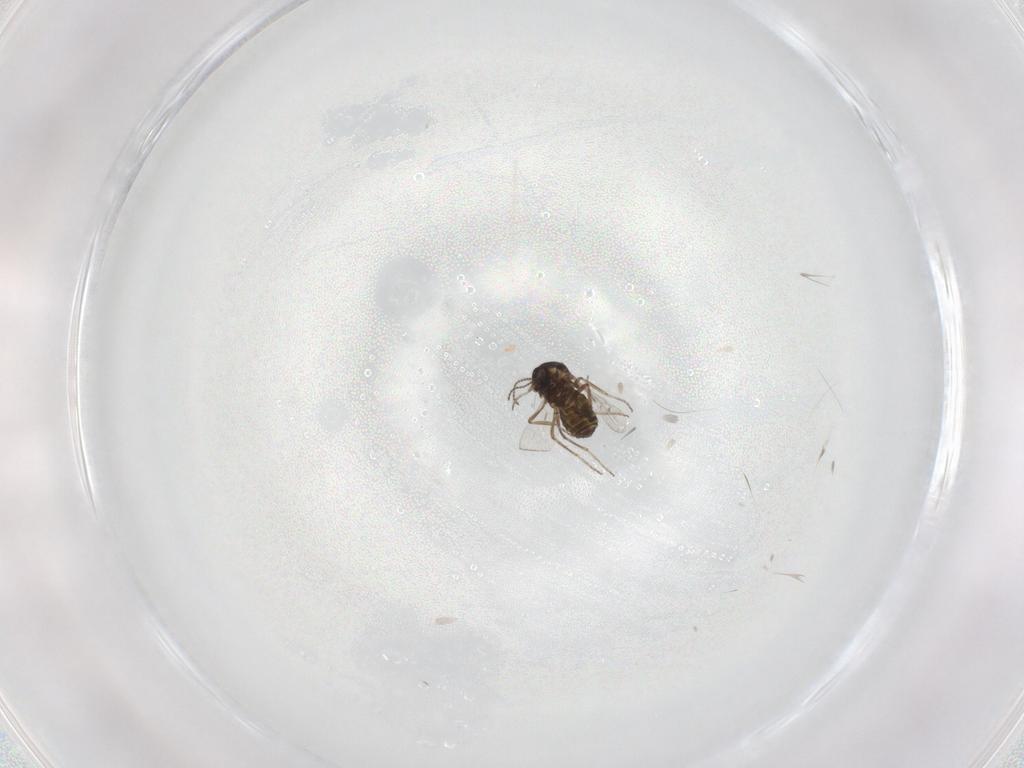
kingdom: Animalia
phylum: Arthropoda
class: Insecta
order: Diptera
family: Ceratopogonidae
